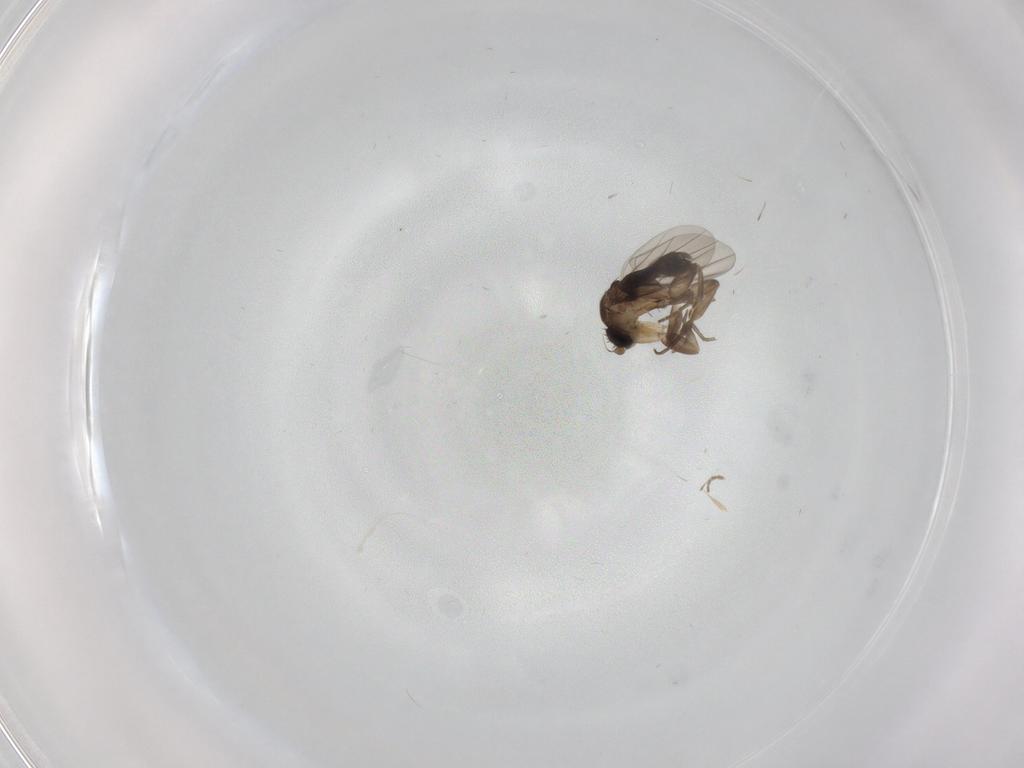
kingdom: Animalia
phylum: Arthropoda
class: Insecta
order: Diptera
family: Phoridae
